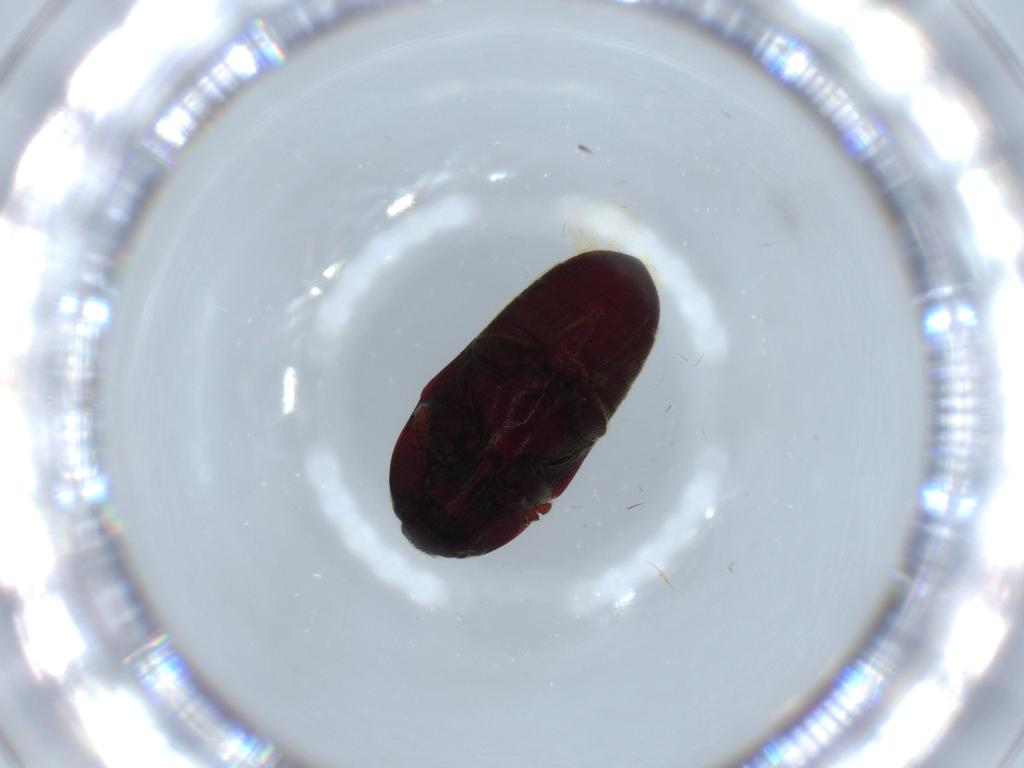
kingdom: Animalia
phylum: Arthropoda
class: Insecta
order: Coleoptera
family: Throscidae
